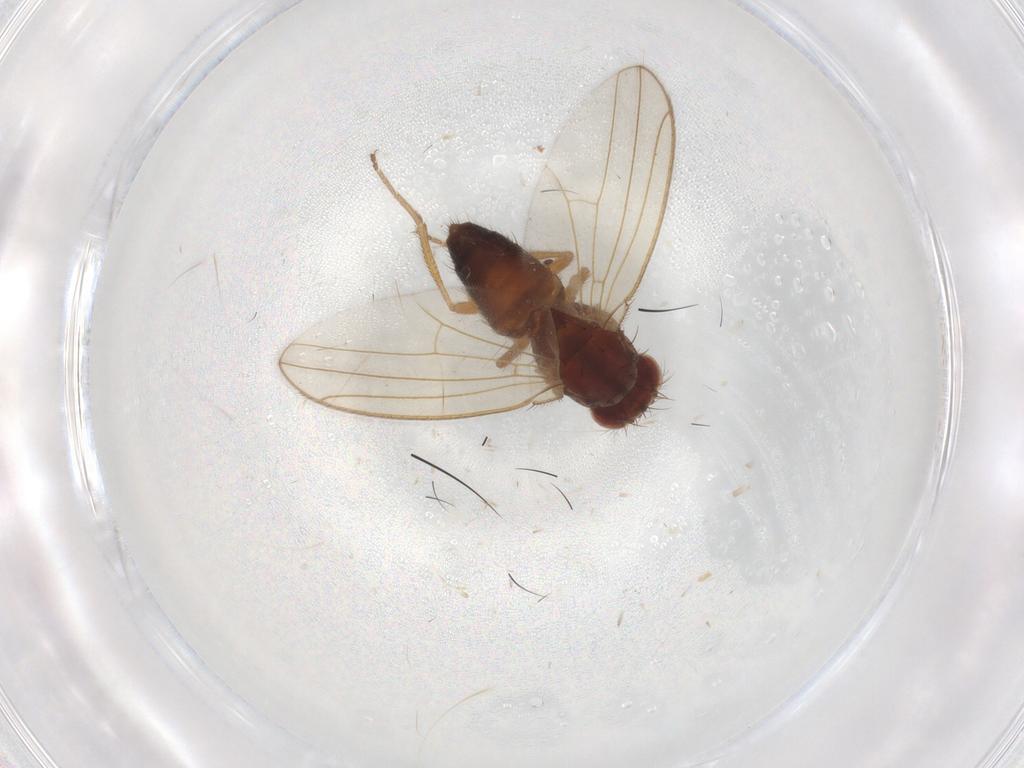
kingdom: Animalia
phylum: Arthropoda
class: Insecta
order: Diptera
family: Drosophilidae
